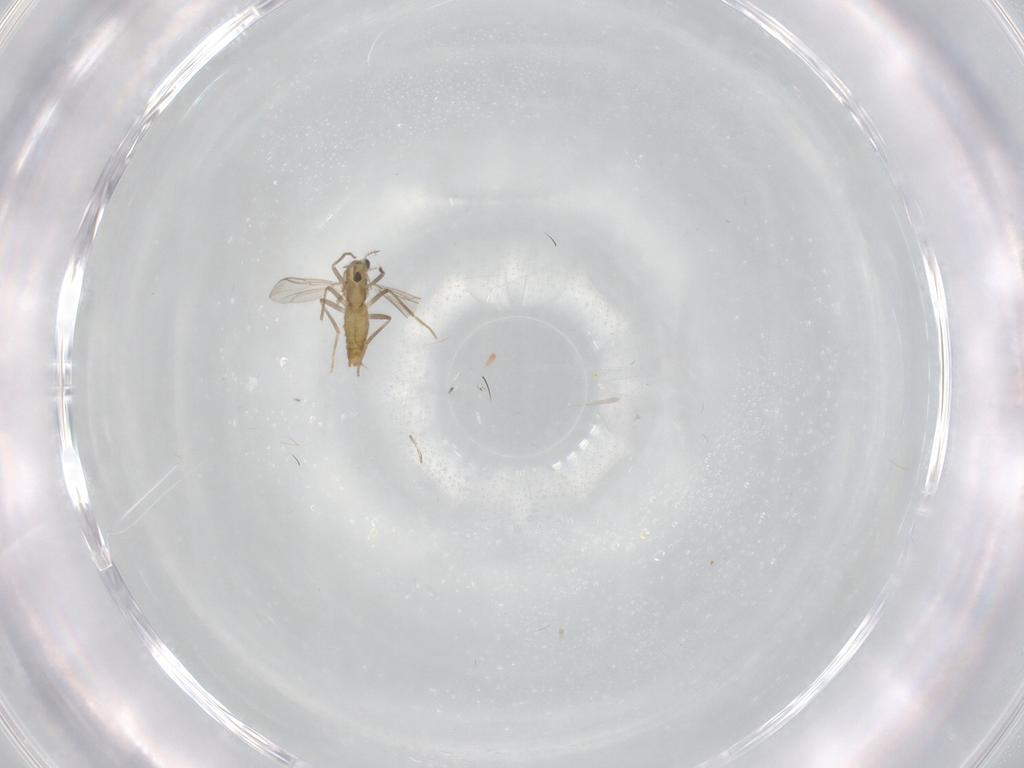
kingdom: Animalia
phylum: Arthropoda
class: Insecta
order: Diptera
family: Chironomidae
